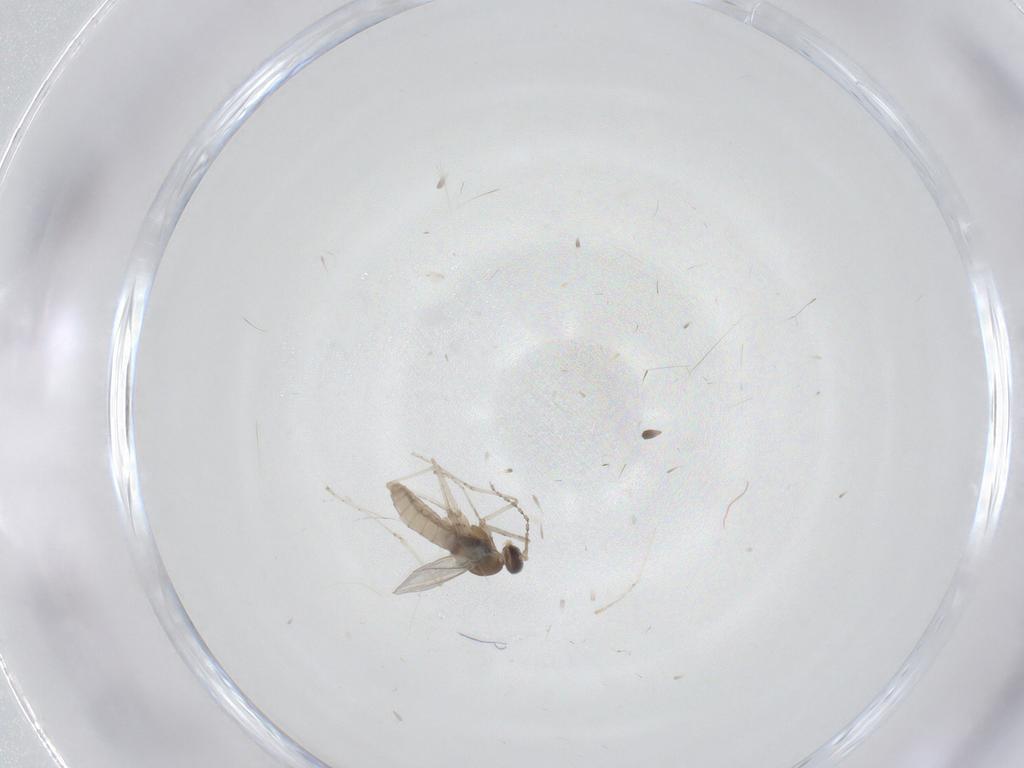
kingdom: Animalia
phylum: Arthropoda
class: Insecta
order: Diptera
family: Cecidomyiidae
